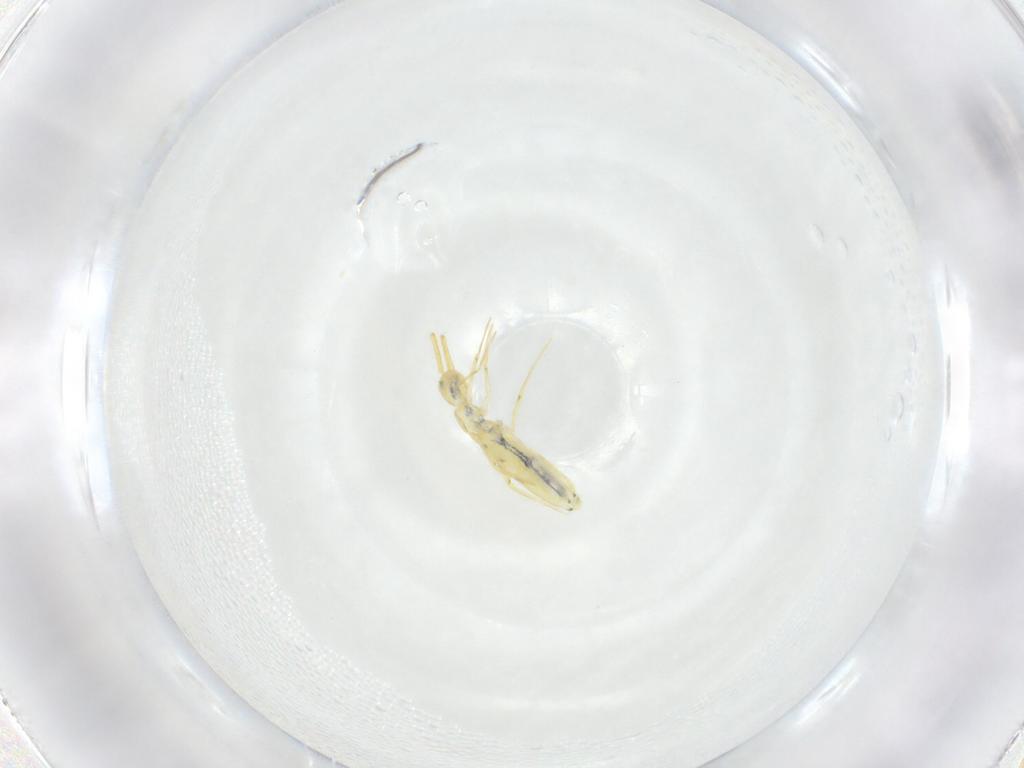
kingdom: Animalia
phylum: Arthropoda
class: Collembola
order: Entomobryomorpha
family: Entomobryidae
